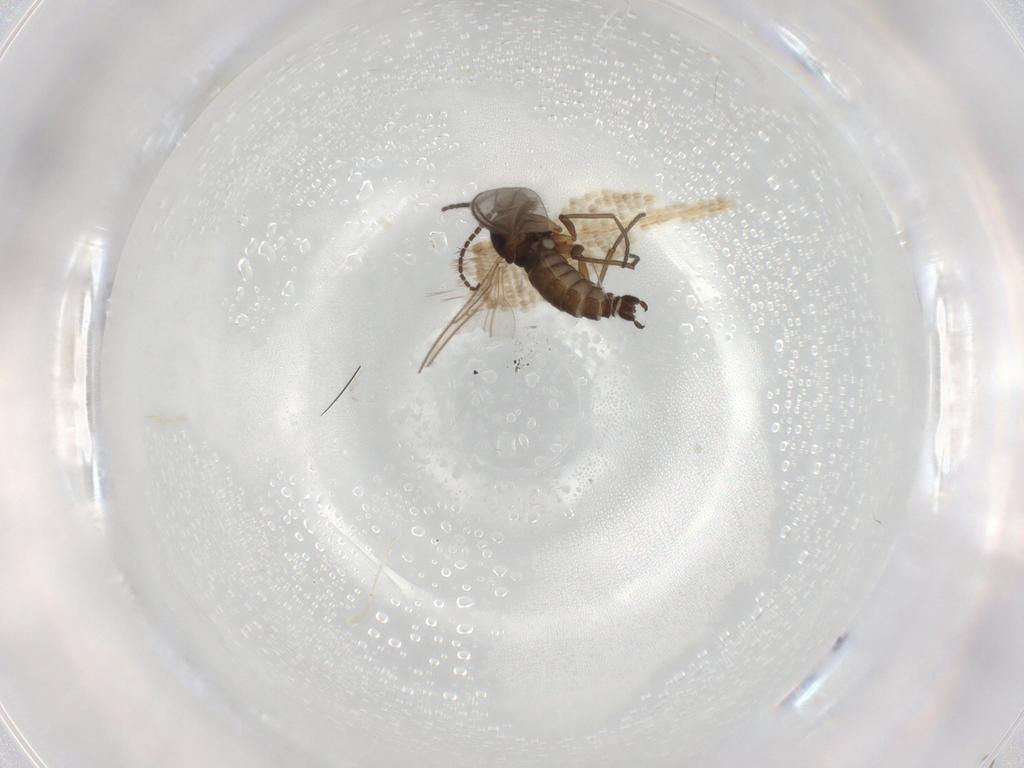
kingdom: Animalia
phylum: Arthropoda
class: Insecta
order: Diptera
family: Sciaridae
